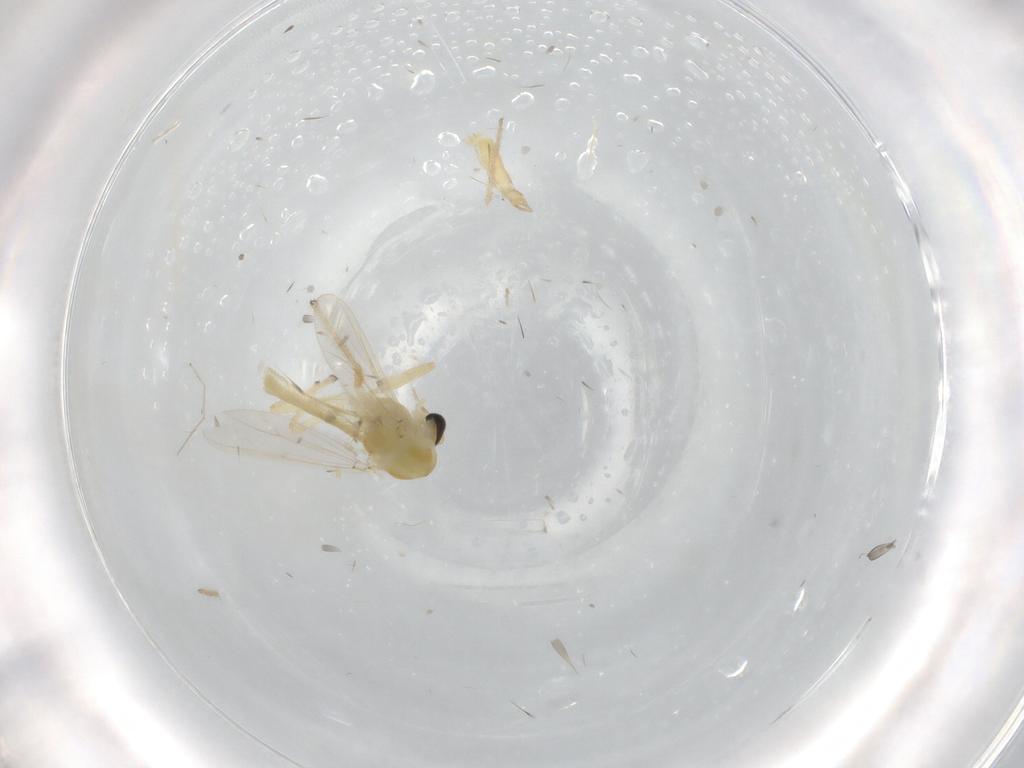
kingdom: Animalia
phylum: Arthropoda
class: Insecta
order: Diptera
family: Chironomidae
